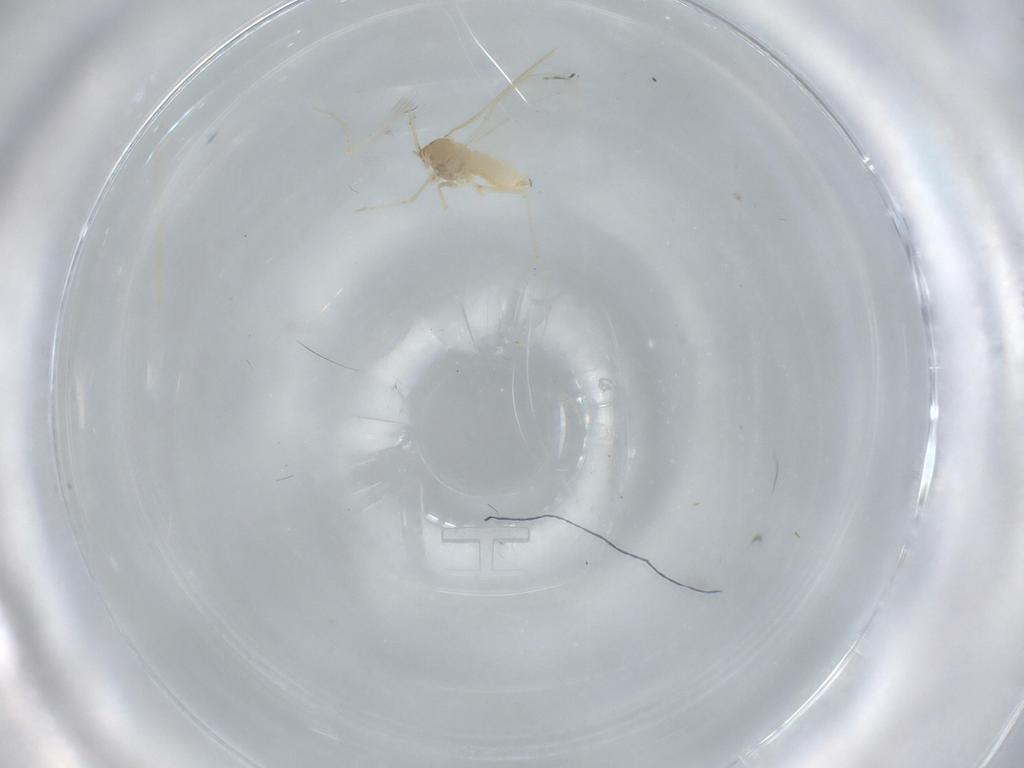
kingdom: Animalia
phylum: Arthropoda
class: Insecta
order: Diptera
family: Cecidomyiidae
